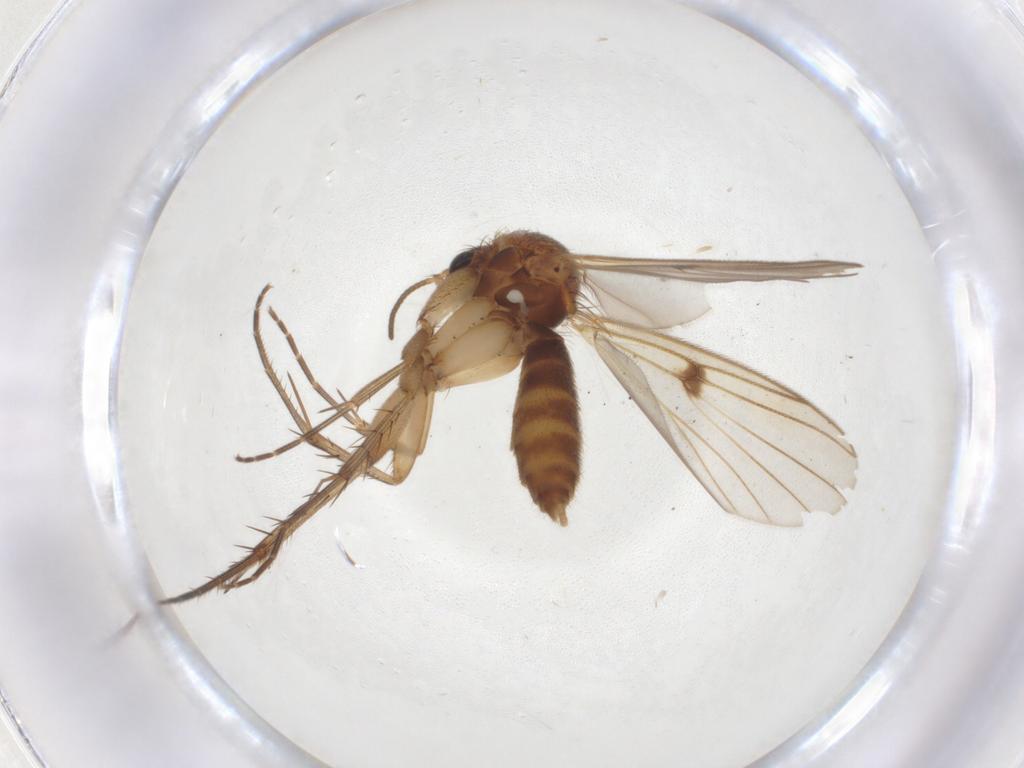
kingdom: Animalia
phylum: Arthropoda
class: Insecta
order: Diptera
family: Mycetophilidae
